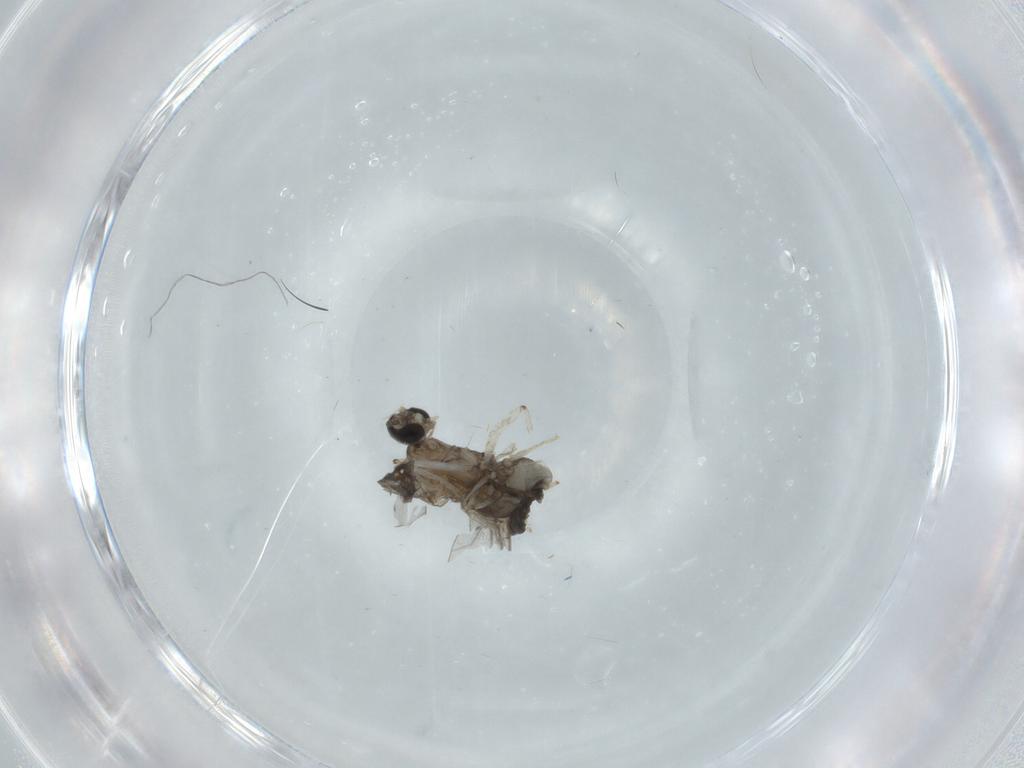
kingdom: Animalia
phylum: Arthropoda
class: Insecta
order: Diptera
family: Cecidomyiidae
